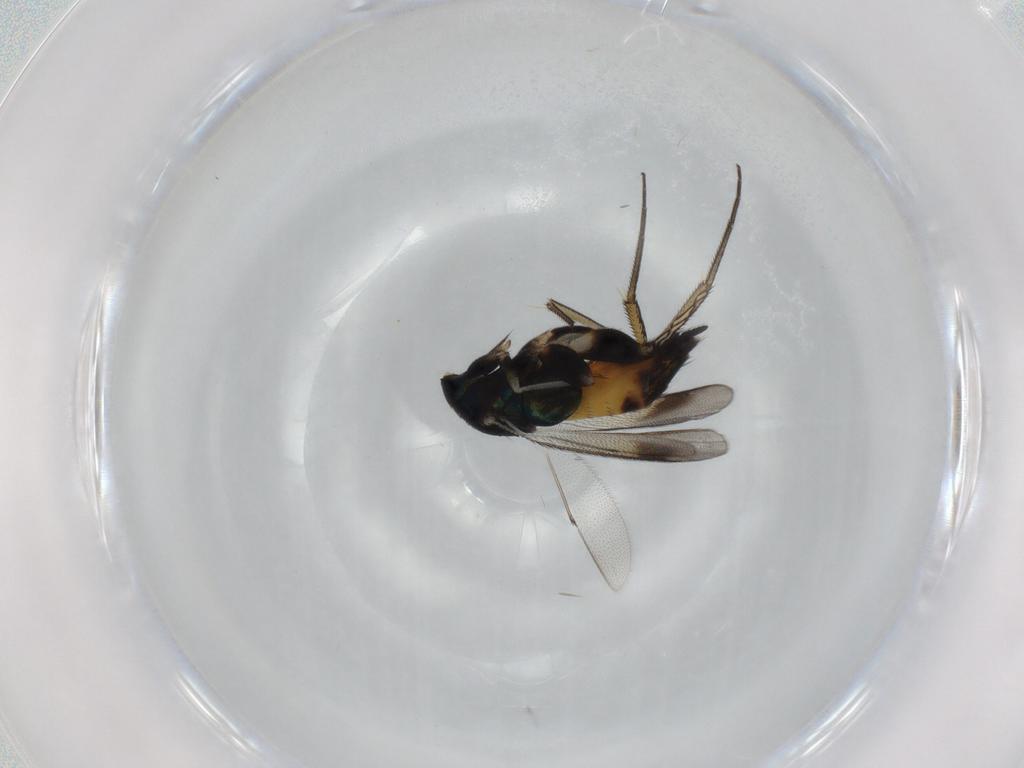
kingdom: Animalia
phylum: Arthropoda
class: Insecta
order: Hymenoptera
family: Eulophidae
